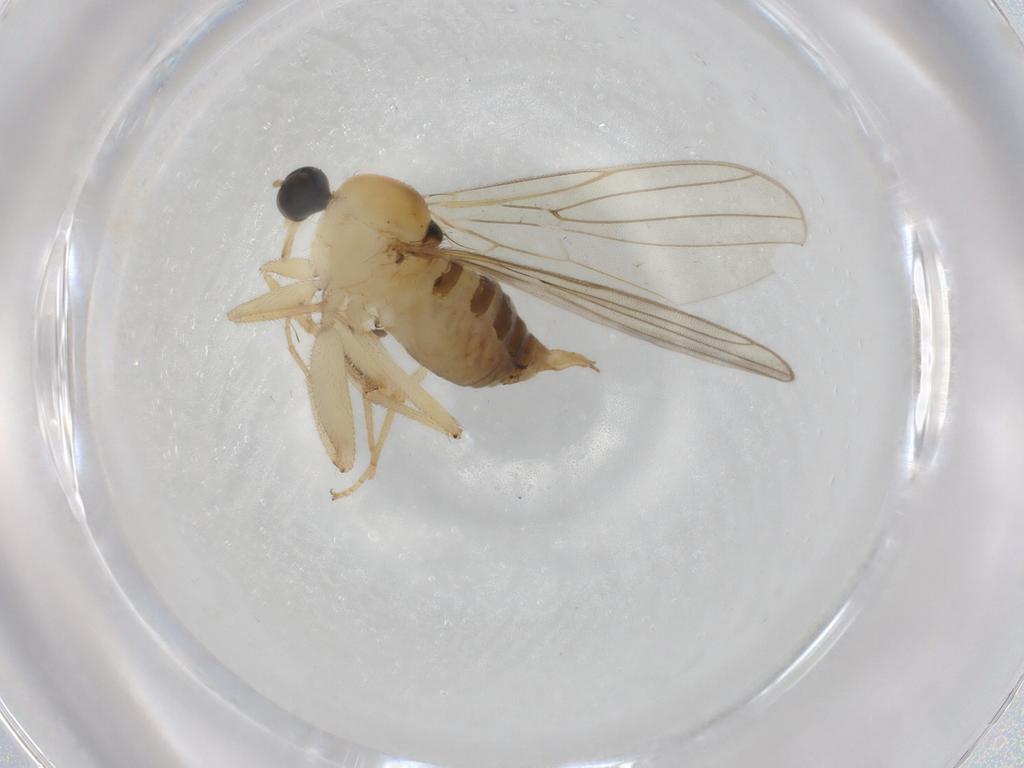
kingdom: Animalia
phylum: Arthropoda
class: Insecta
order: Diptera
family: Hybotidae
